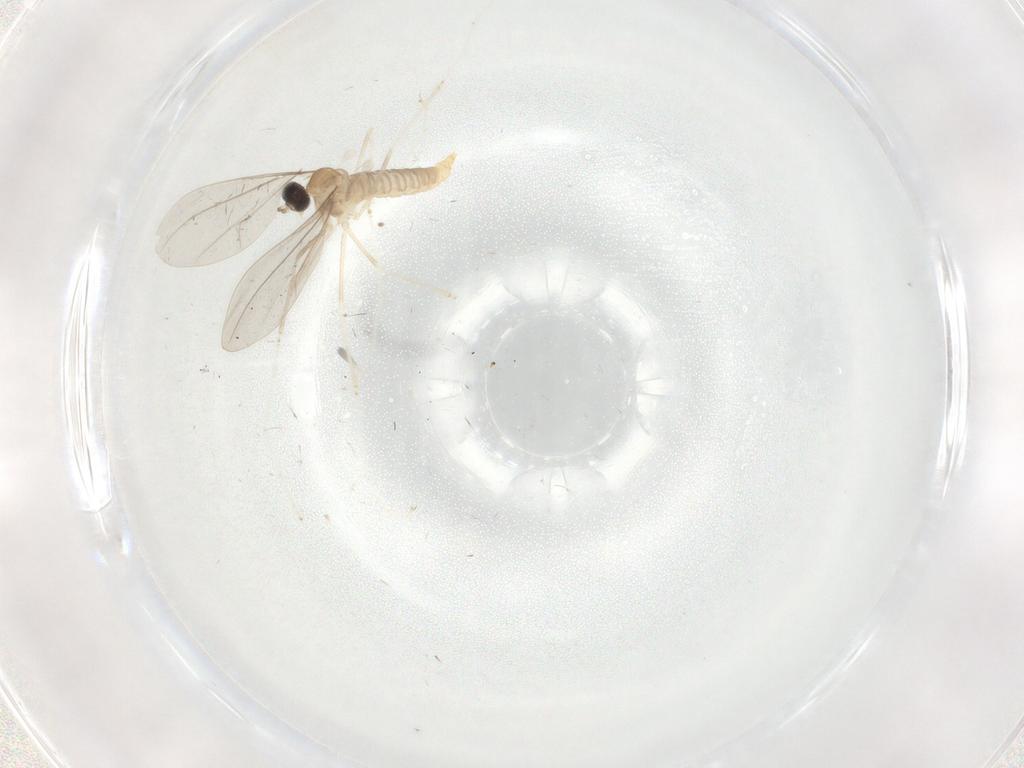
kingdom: Animalia
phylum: Arthropoda
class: Insecta
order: Diptera
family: Cecidomyiidae
